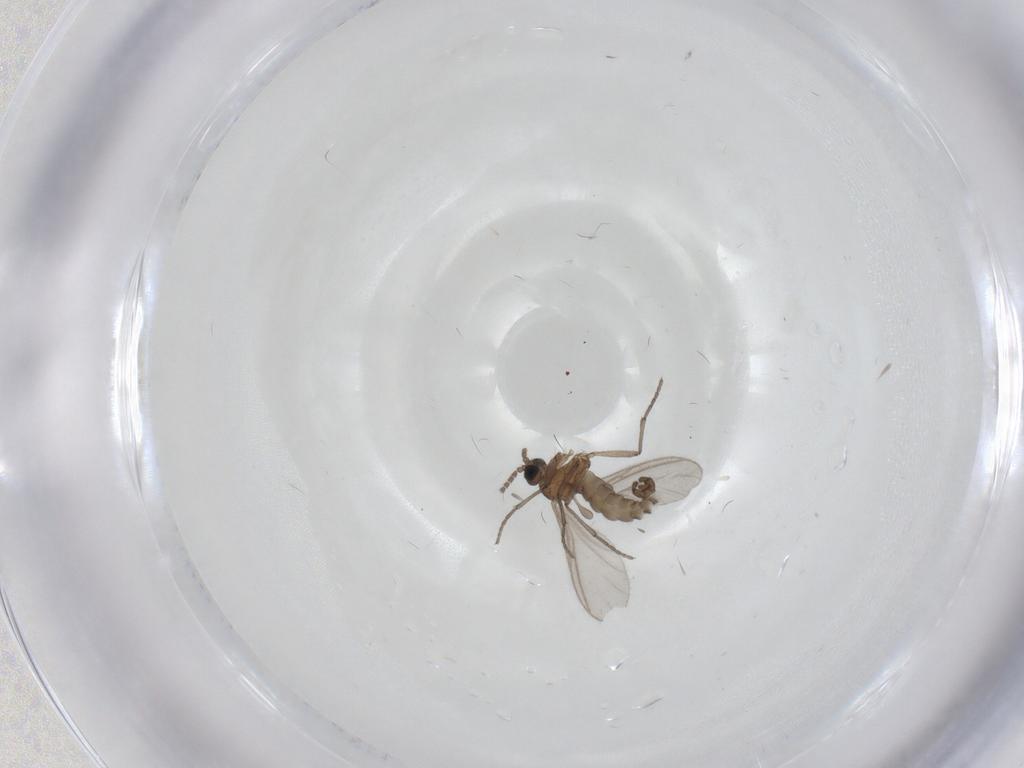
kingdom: Animalia
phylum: Arthropoda
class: Insecta
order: Diptera
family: Sciaridae
